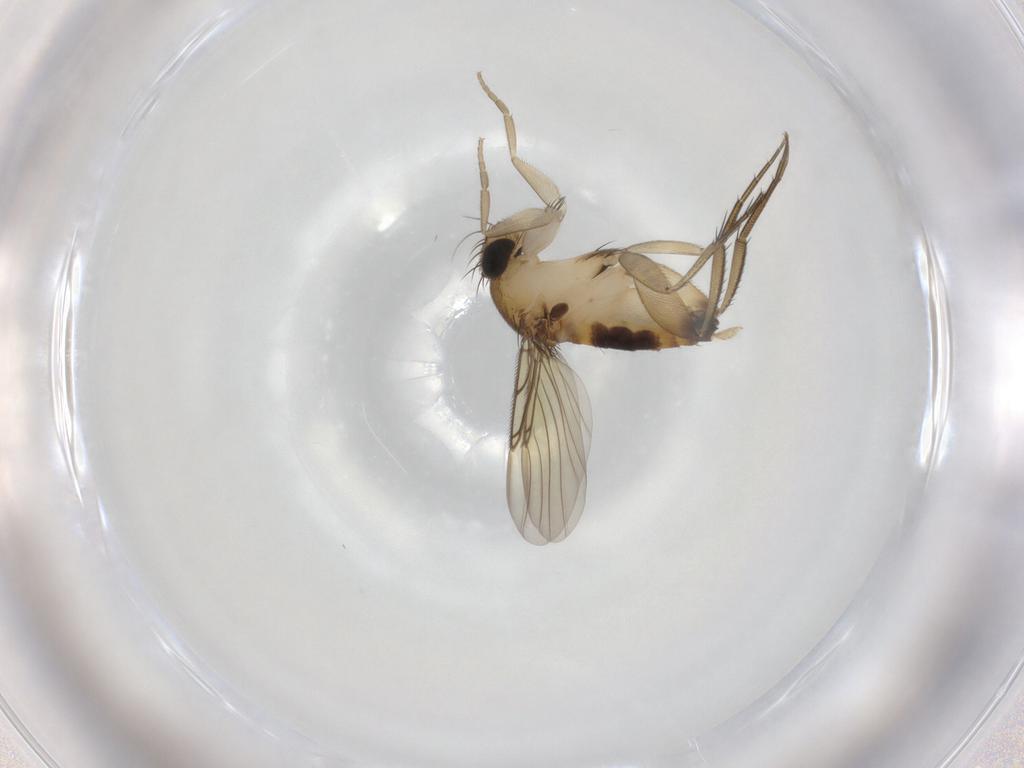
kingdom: Animalia
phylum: Arthropoda
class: Insecta
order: Diptera
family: Phoridae
